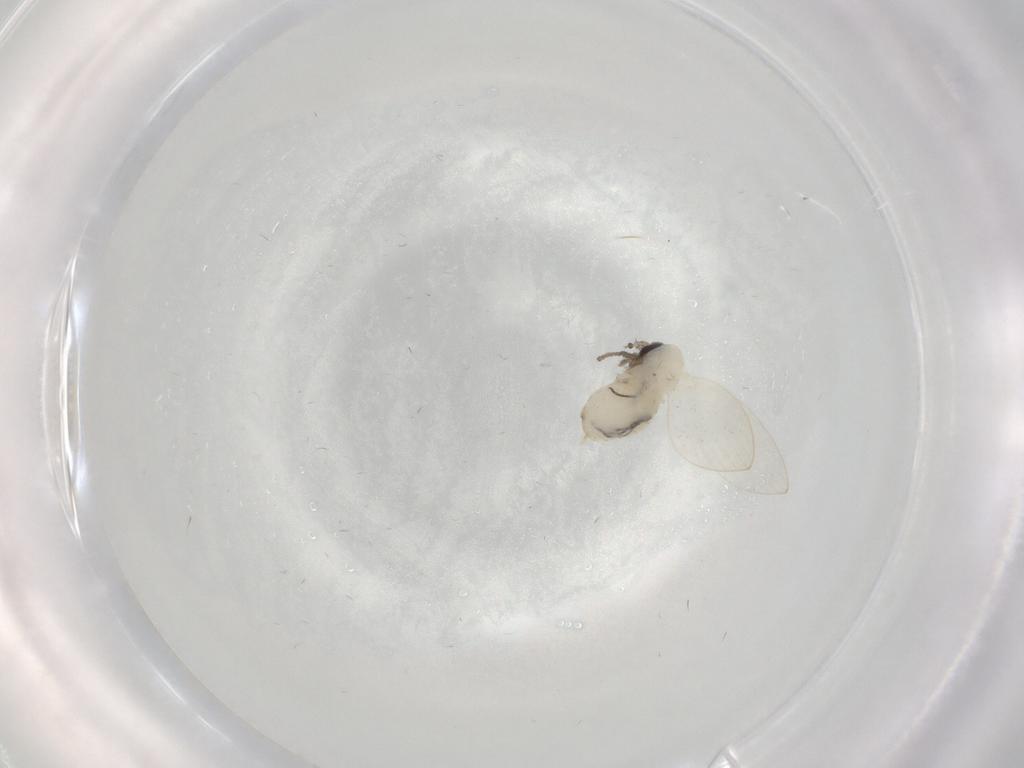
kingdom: Animalia
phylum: Arthropoda
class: Insecta
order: Diptera
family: Psychodidae
